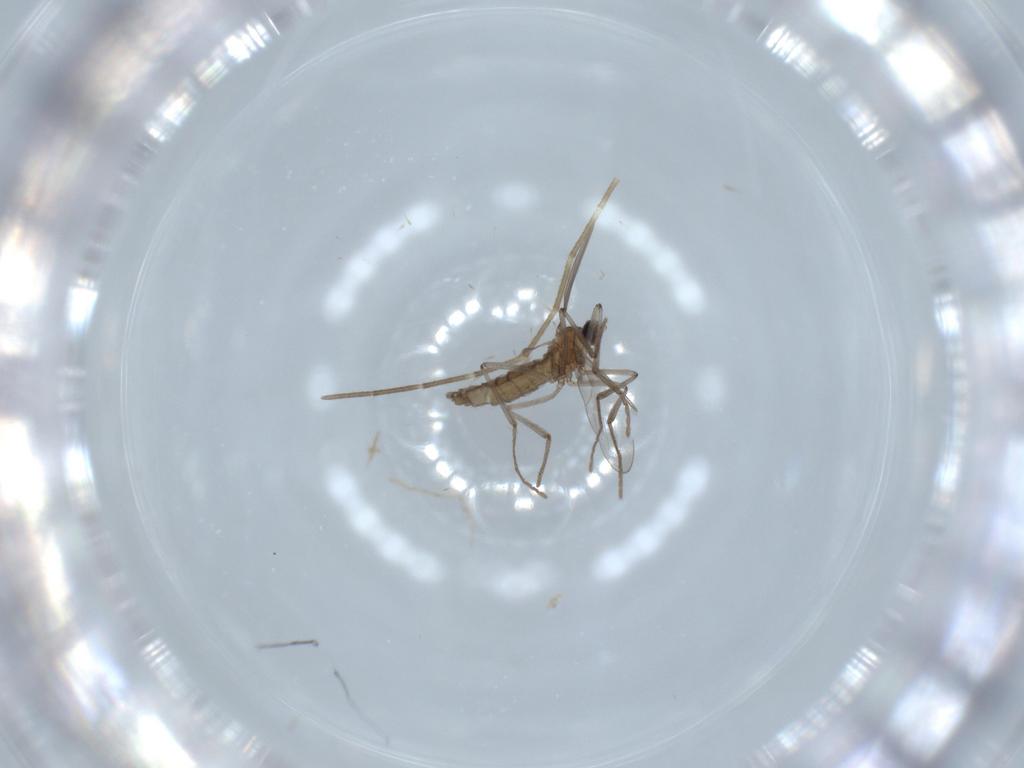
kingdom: Animalia
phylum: Arthropoda
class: Insecta
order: Diptera
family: Cecidomyiidae
